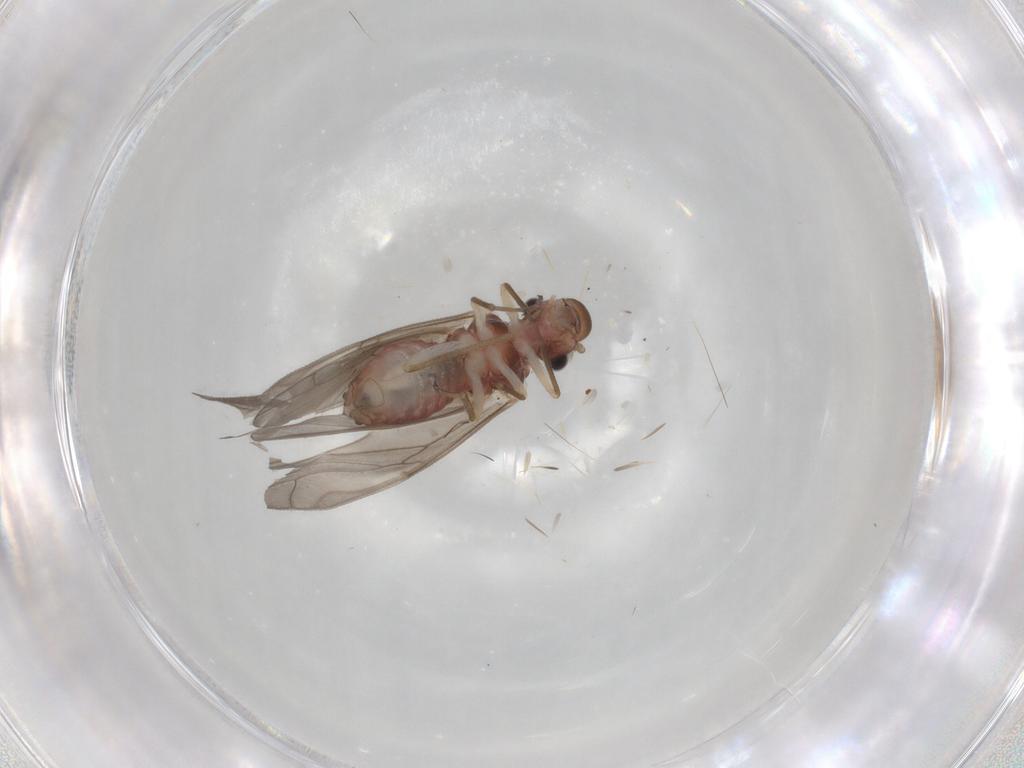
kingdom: Animalia
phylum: Arthropoda
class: Insecta
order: Psocodea
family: Caeciliusidae
